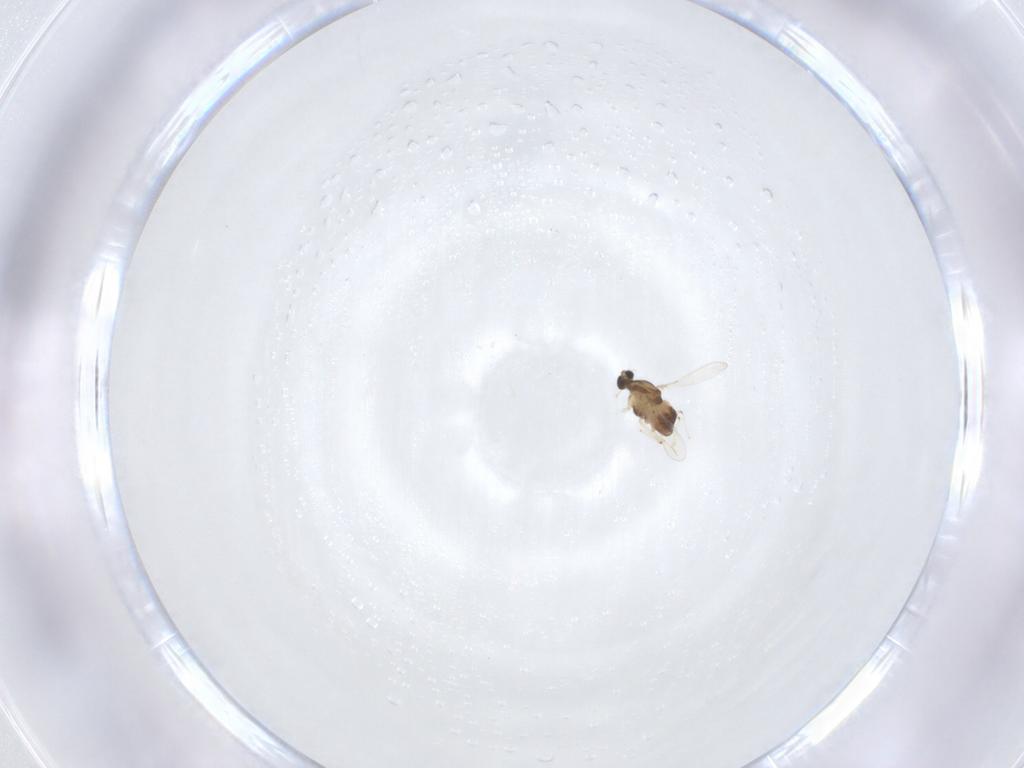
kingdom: Animalia
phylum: Arthropoda
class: Insecta
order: Diptera
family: Chironomidae
